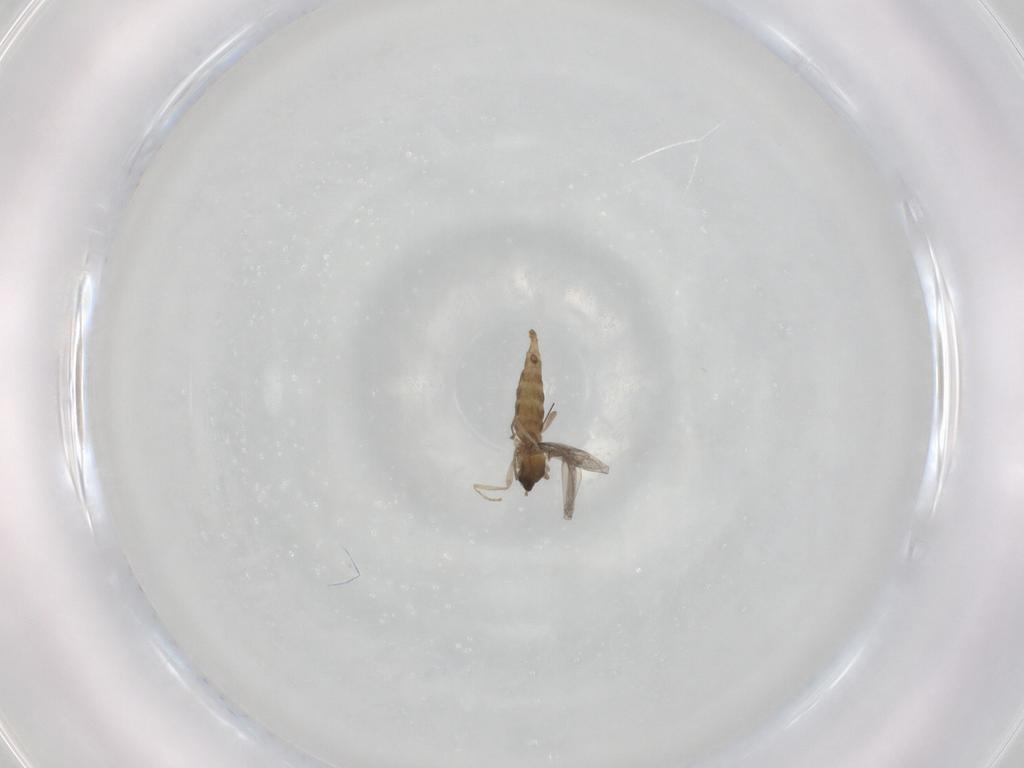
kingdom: Animalia
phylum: Arthropoda
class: Insecta
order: Diptera
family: Cecidomyiidae
